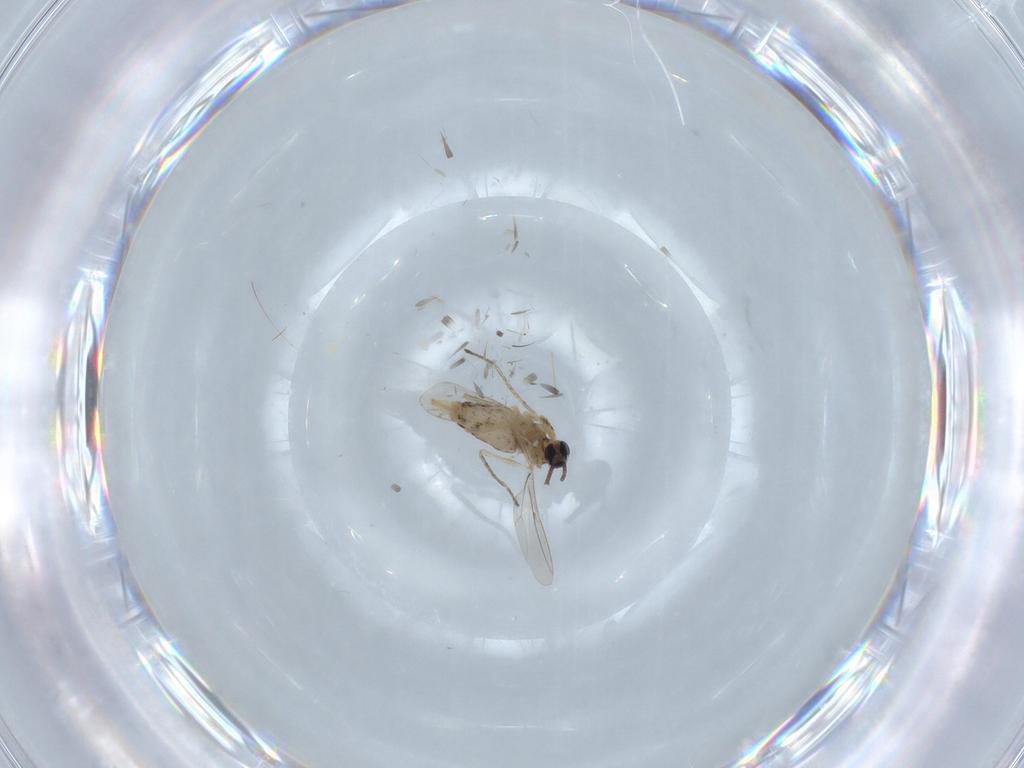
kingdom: Animalia
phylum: Arthropoda
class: Insecta
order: Diptera
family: Cecidomyiidae
